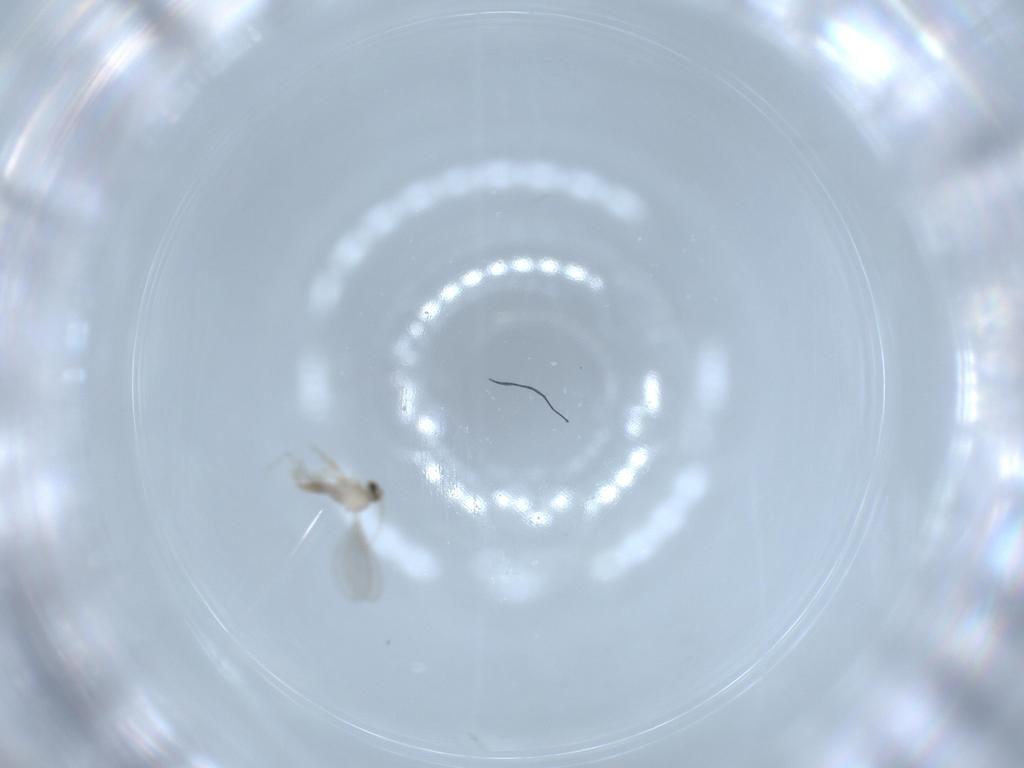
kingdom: Animalia
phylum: Arthropoda
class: Insecta
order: Diptera
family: Cecidomyiidae
